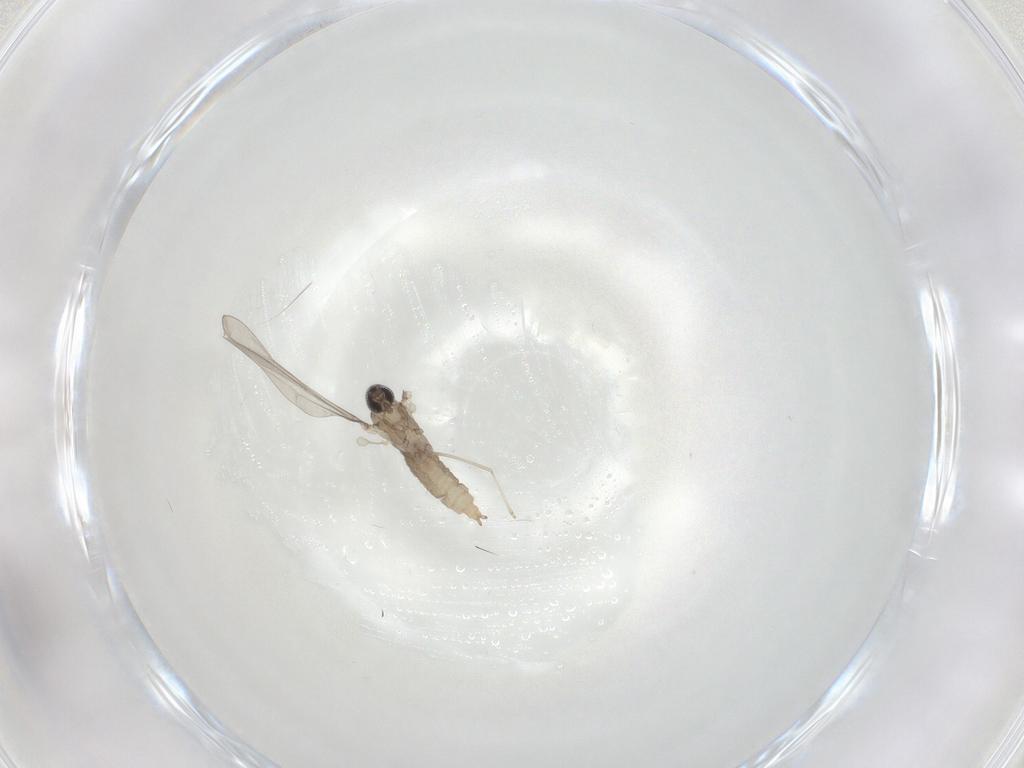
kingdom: Animalia
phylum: Arthropoda
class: Insecta
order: Diptera
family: Cecidomyiidae
